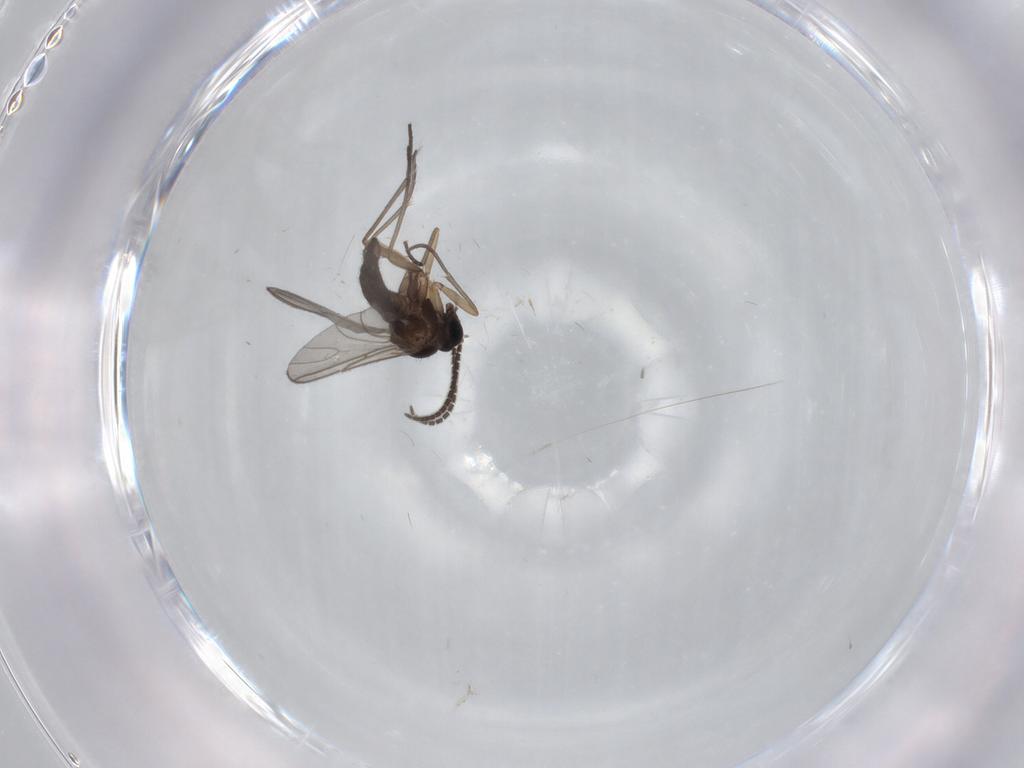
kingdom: Animalia
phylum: Arthropoda
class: Insecta
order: Diptera
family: Sciaridae
